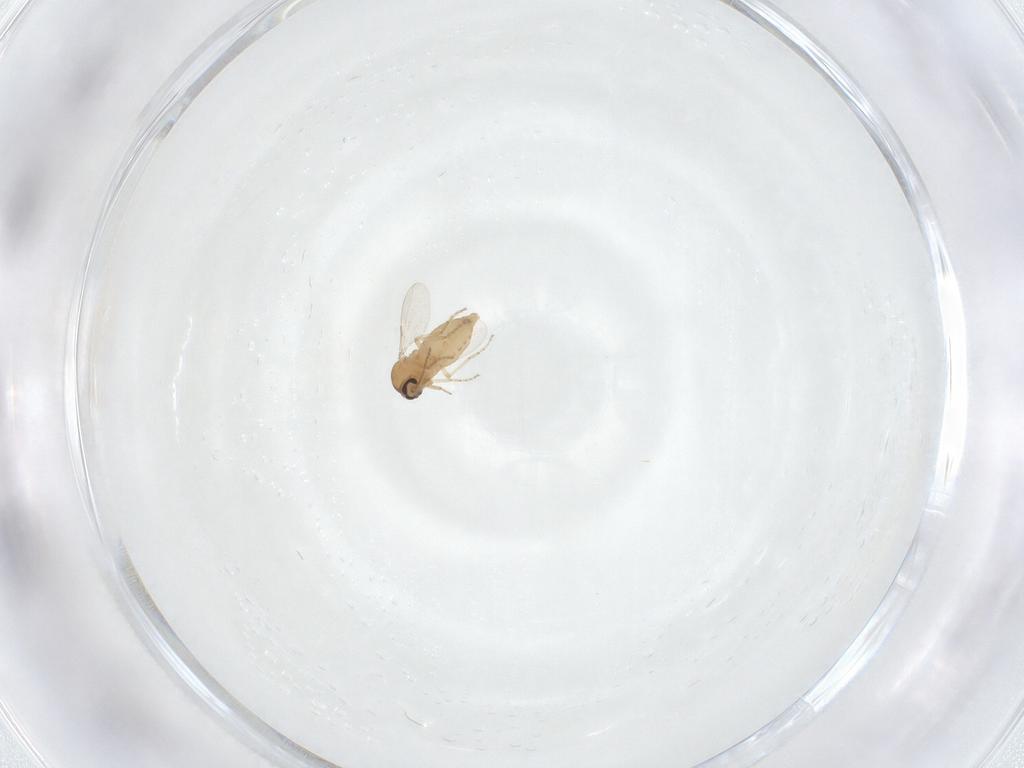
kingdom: Animalia
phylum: Arthropoda
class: Insecta
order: Diptera
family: Ceratopogonidae
